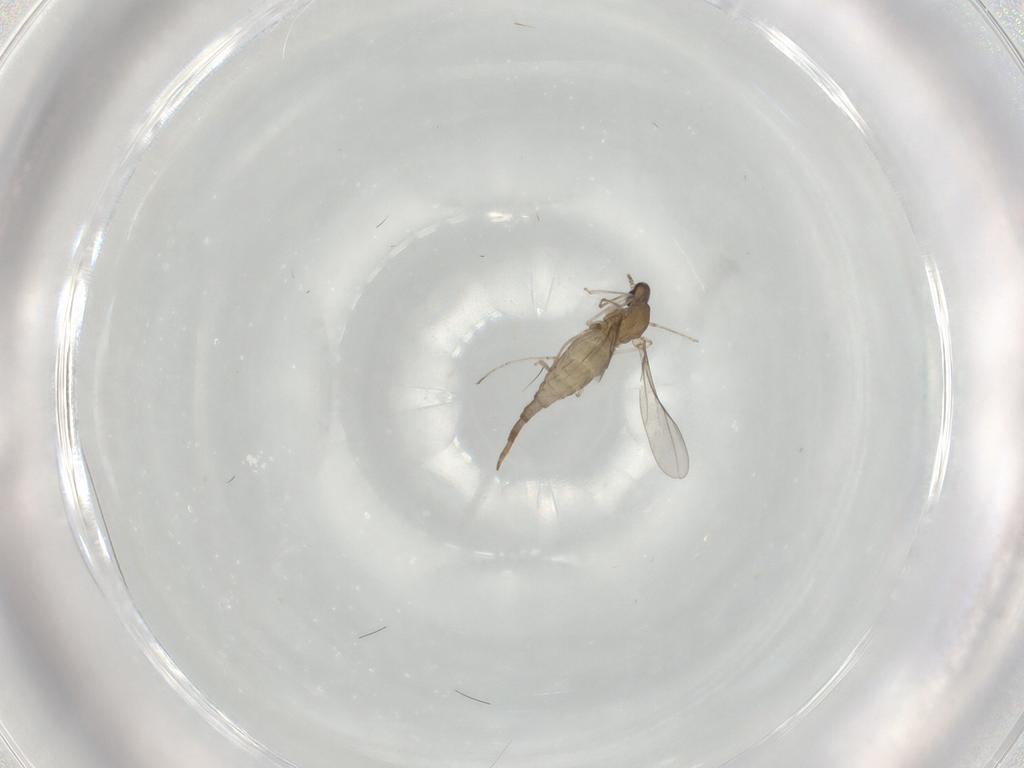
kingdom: Animalia
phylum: Arthropoda
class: Insecta
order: Diptera
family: Cecidomyiidae
